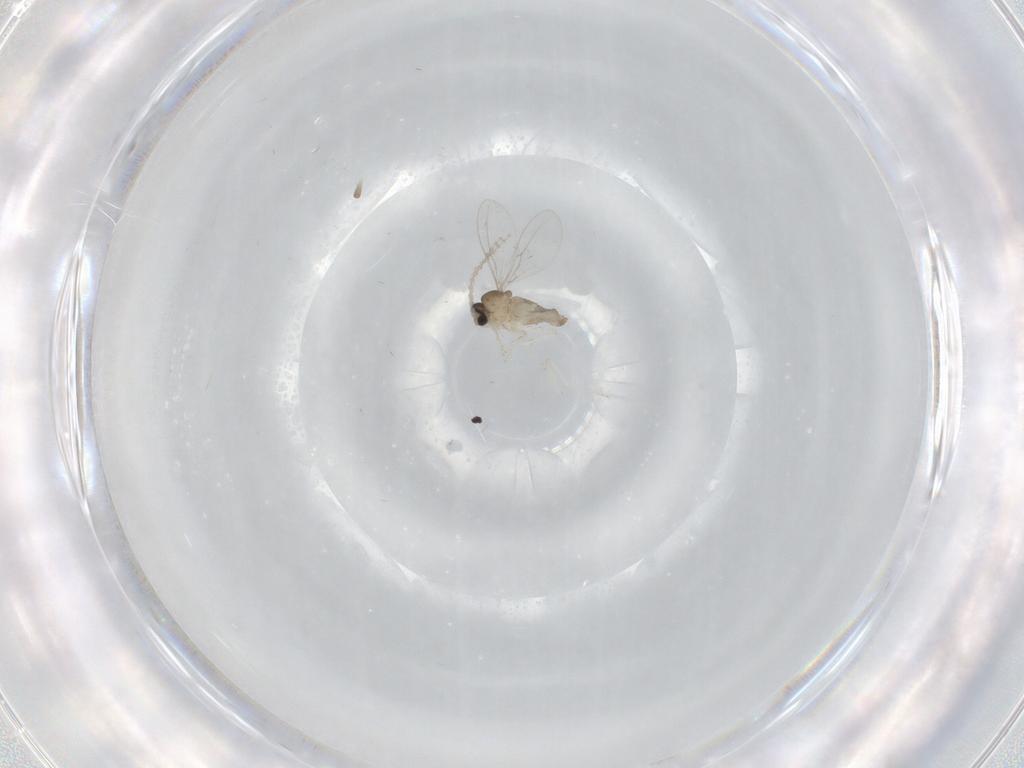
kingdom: Animalia
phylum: Arthropoda
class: Insecta
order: Diptera
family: Cecidomyiidae
